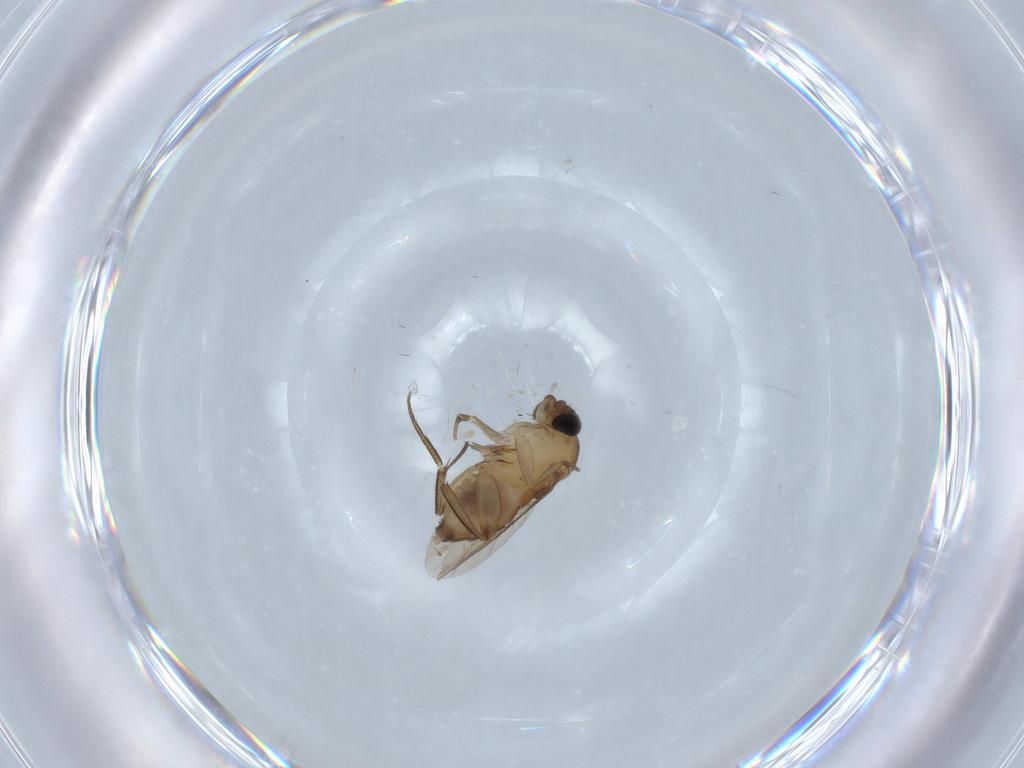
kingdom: Animalia
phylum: Arthropoda
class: Insecta
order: Diptera
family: Phoridae
